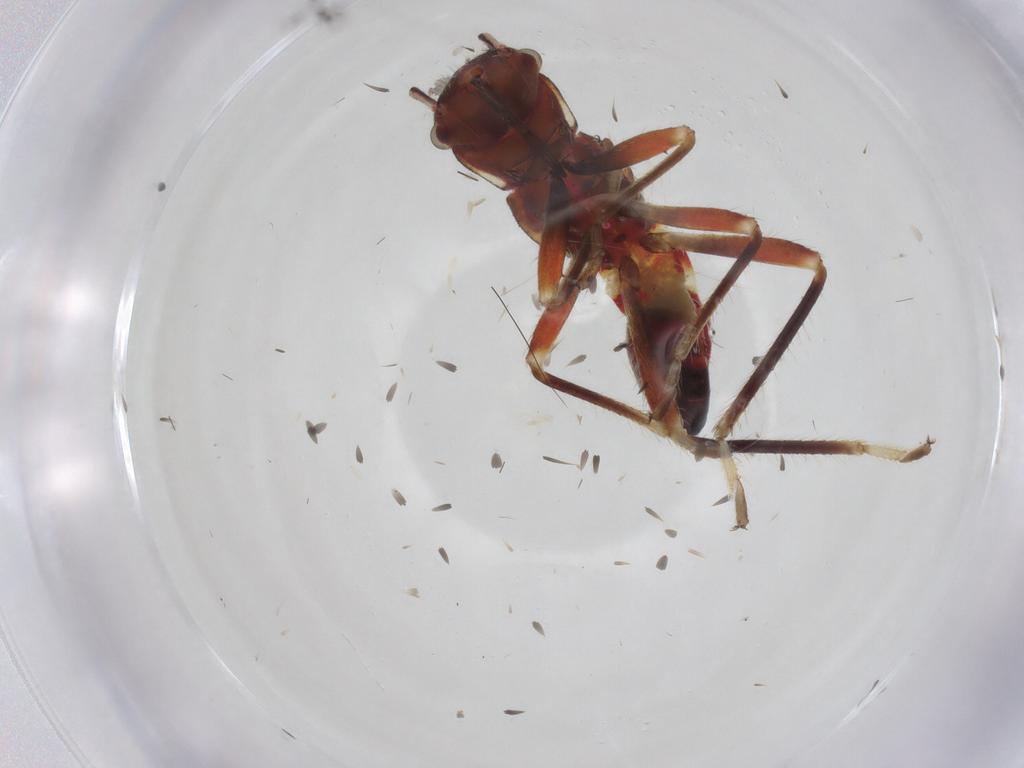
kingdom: Animalia
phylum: Arthropoda
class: Insecta
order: Hemiptera
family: Rhopalidae
